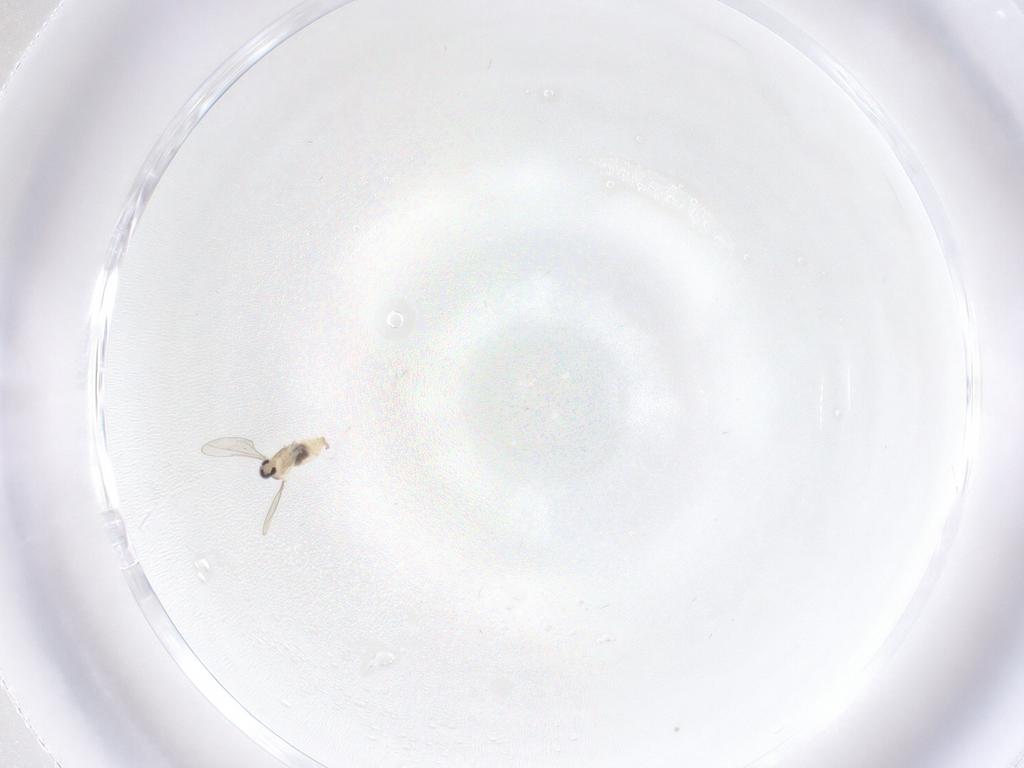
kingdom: Animalia
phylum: Arthropoda
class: Insecta
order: Diptera
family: Cecidomyiidae
